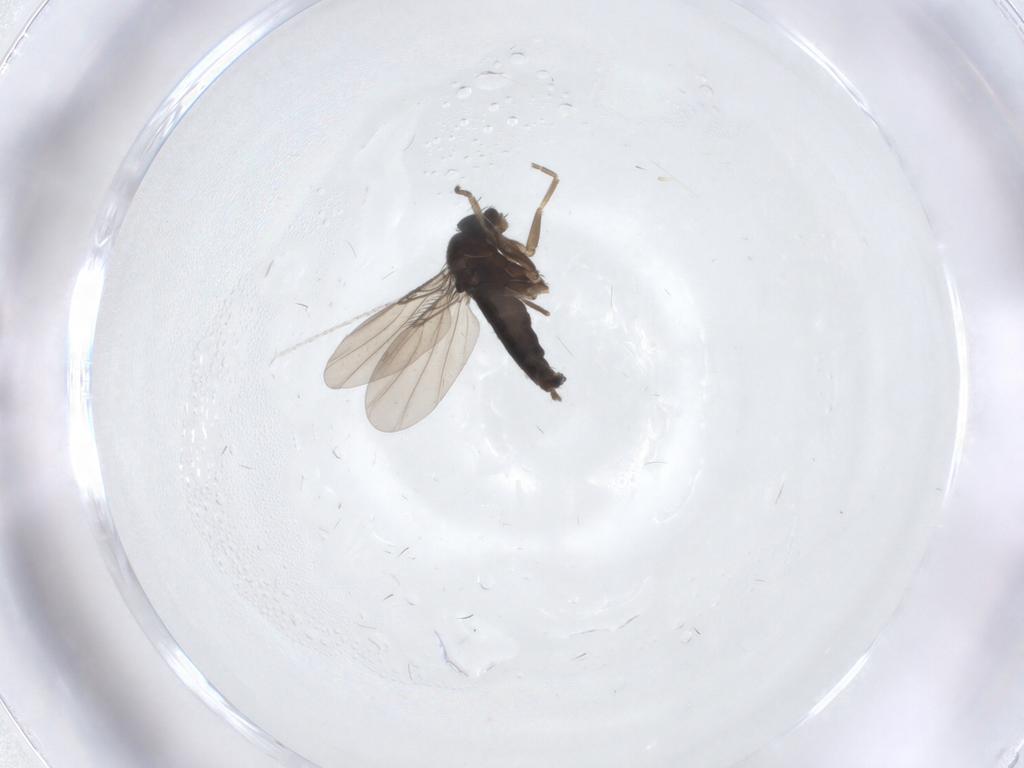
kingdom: Animalia
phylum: Arthropoda
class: Insecta
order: Diptera
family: Phoridae
